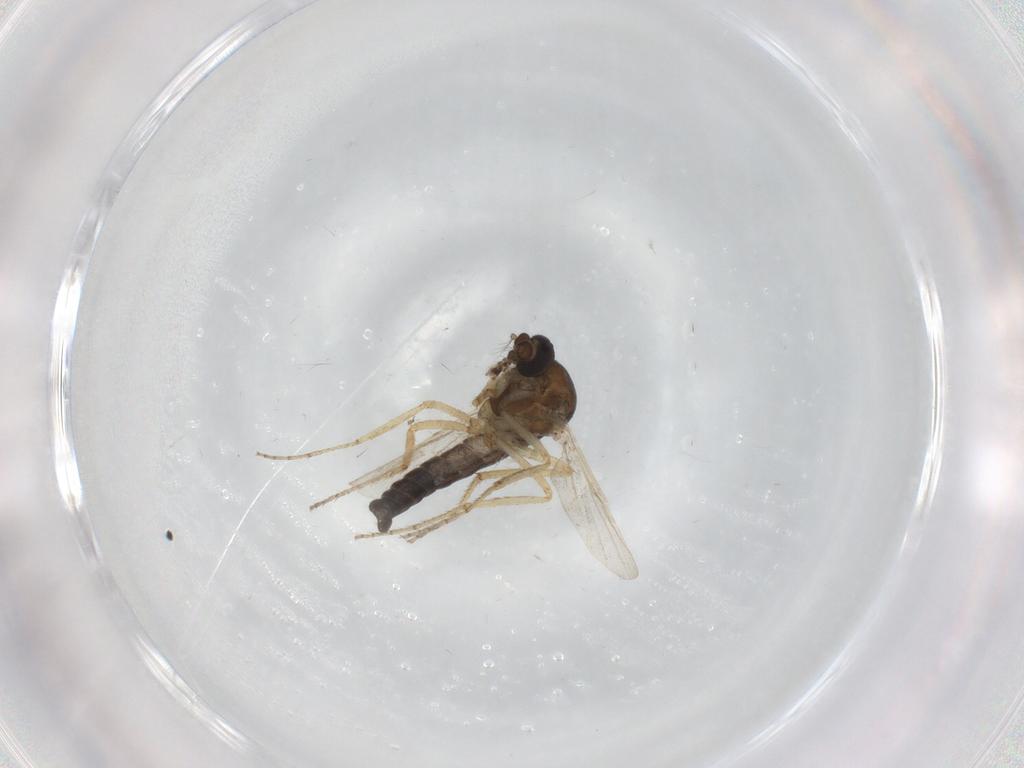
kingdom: Animalia
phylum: Arthropoda
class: Insecta
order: Diptera
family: Ceratopogonidae
